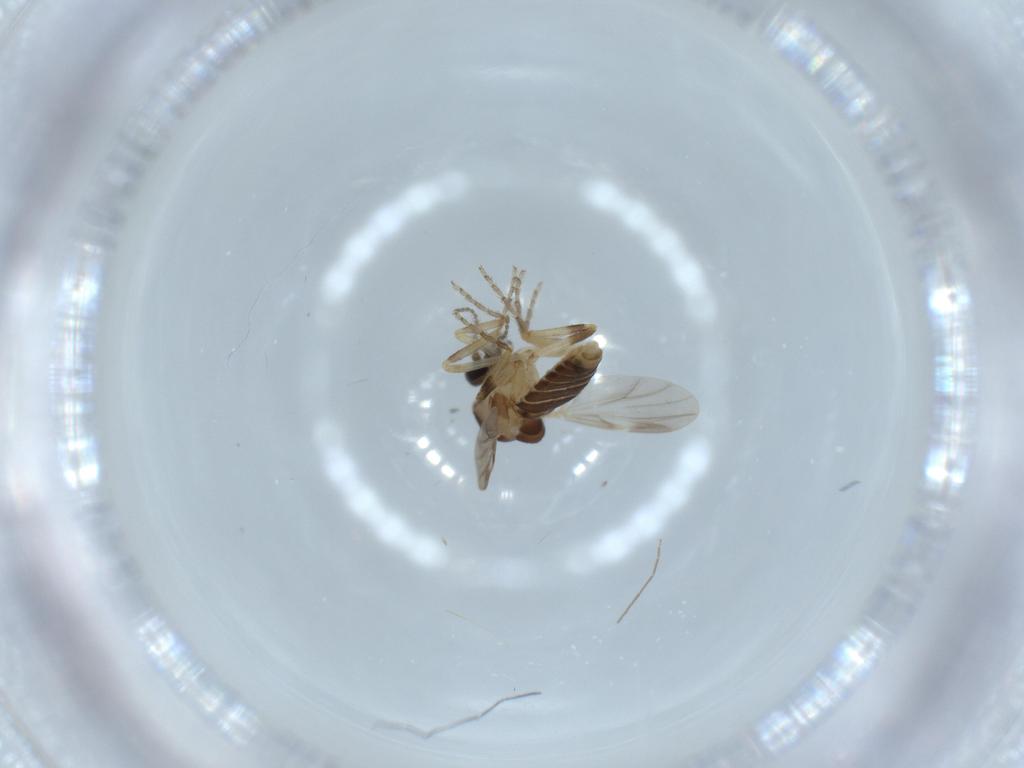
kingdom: Animalia
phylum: Arthropoda
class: Insecta
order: Diptera
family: Ceratopogonidae
